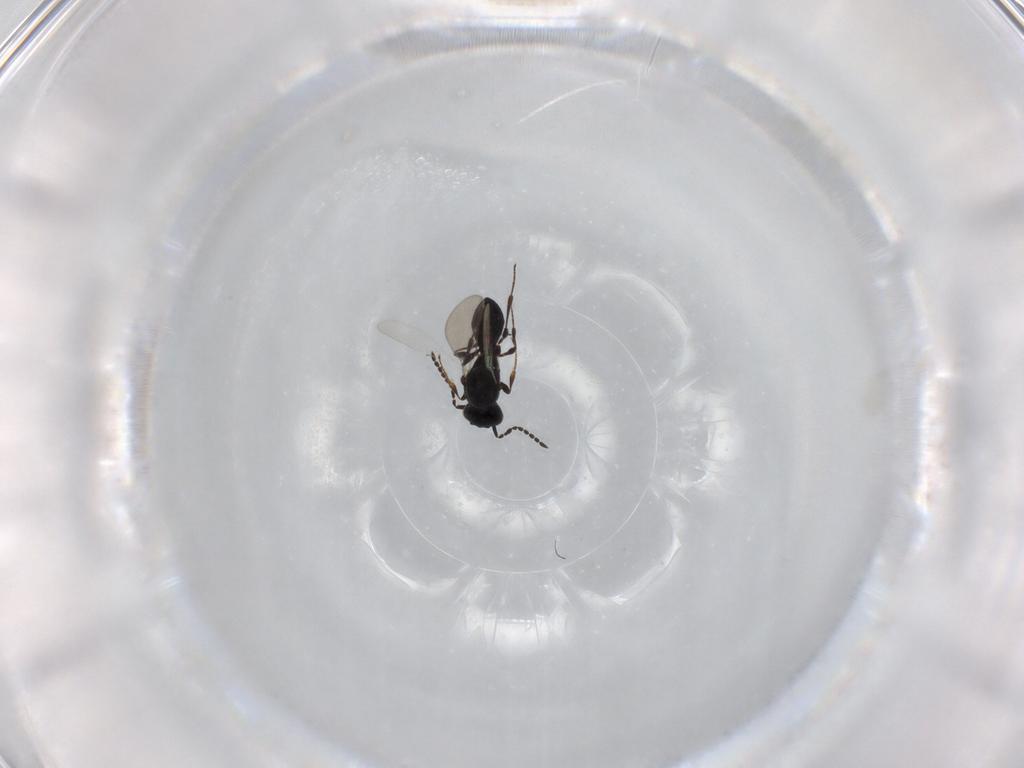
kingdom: Animalia
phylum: Arthropoda
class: Insecta
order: Hymenoptera
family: Platygastridae
